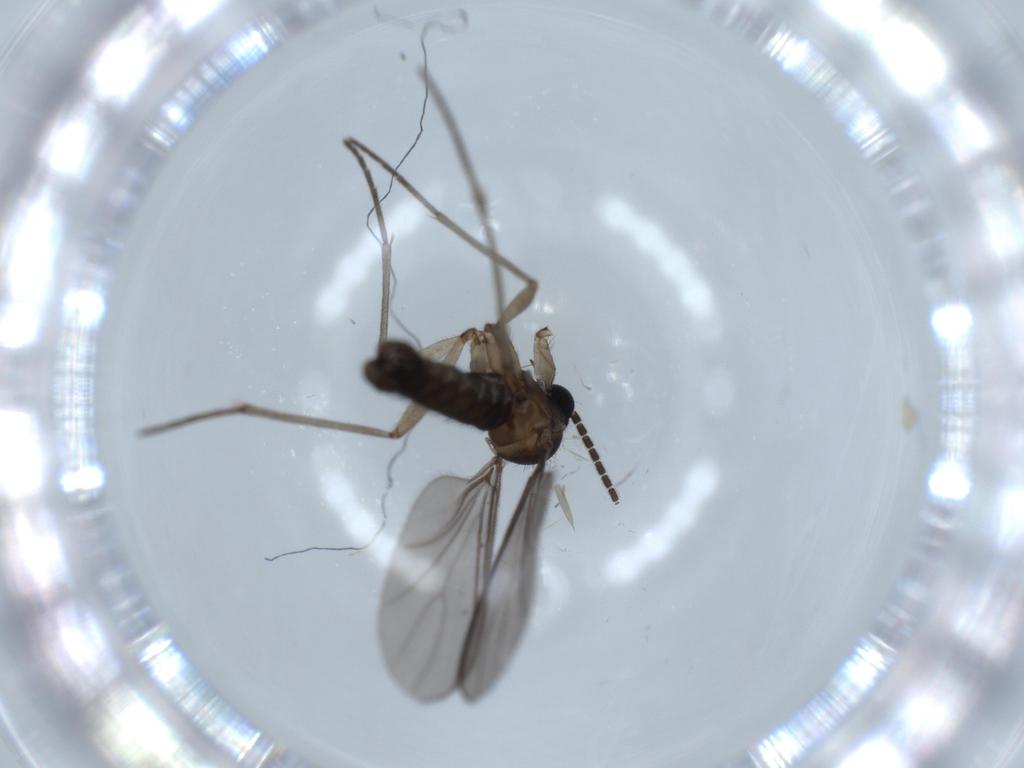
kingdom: Animalia
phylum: Arthropoda
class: Insecta
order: Diptera
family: Sciaridae
